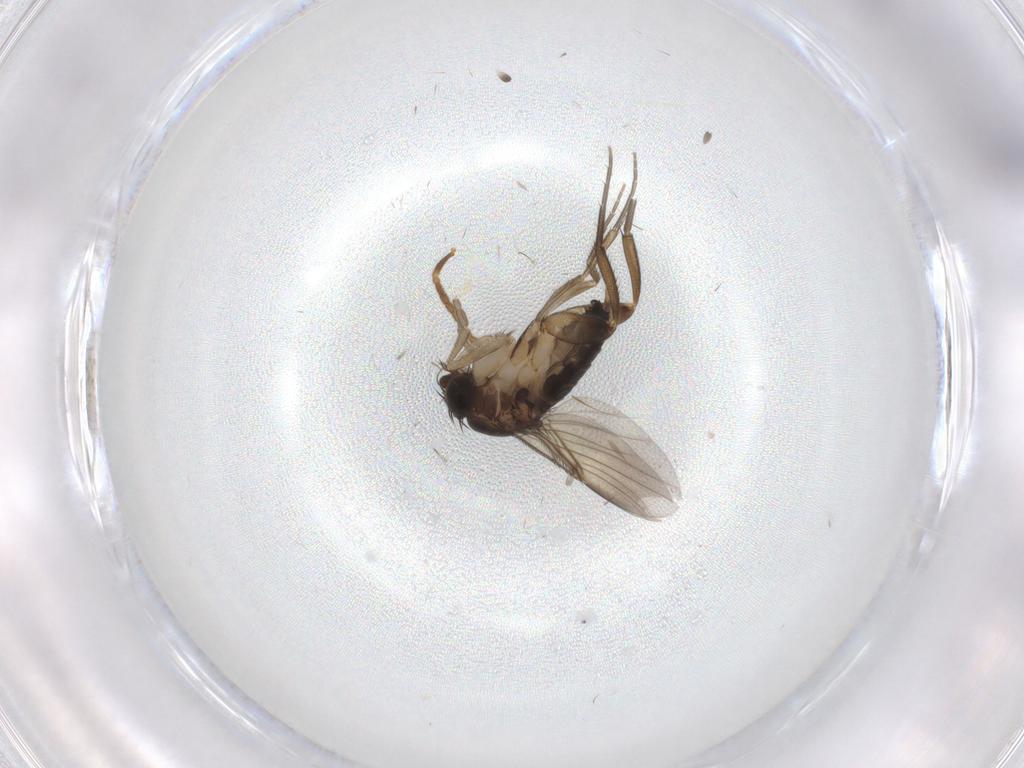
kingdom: Animalia
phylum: Arthropoda
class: Insecta
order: Diptera
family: Phoridae
